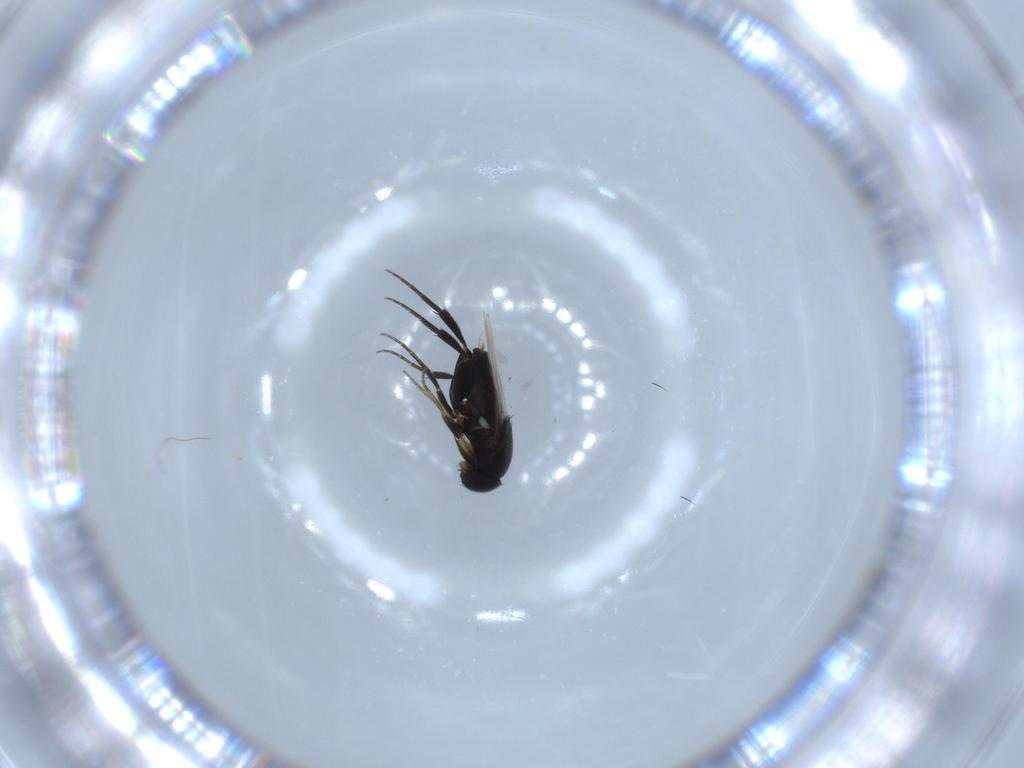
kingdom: Animalia
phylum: Arthropoda
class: Insecta
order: Diptera
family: Phoridae
